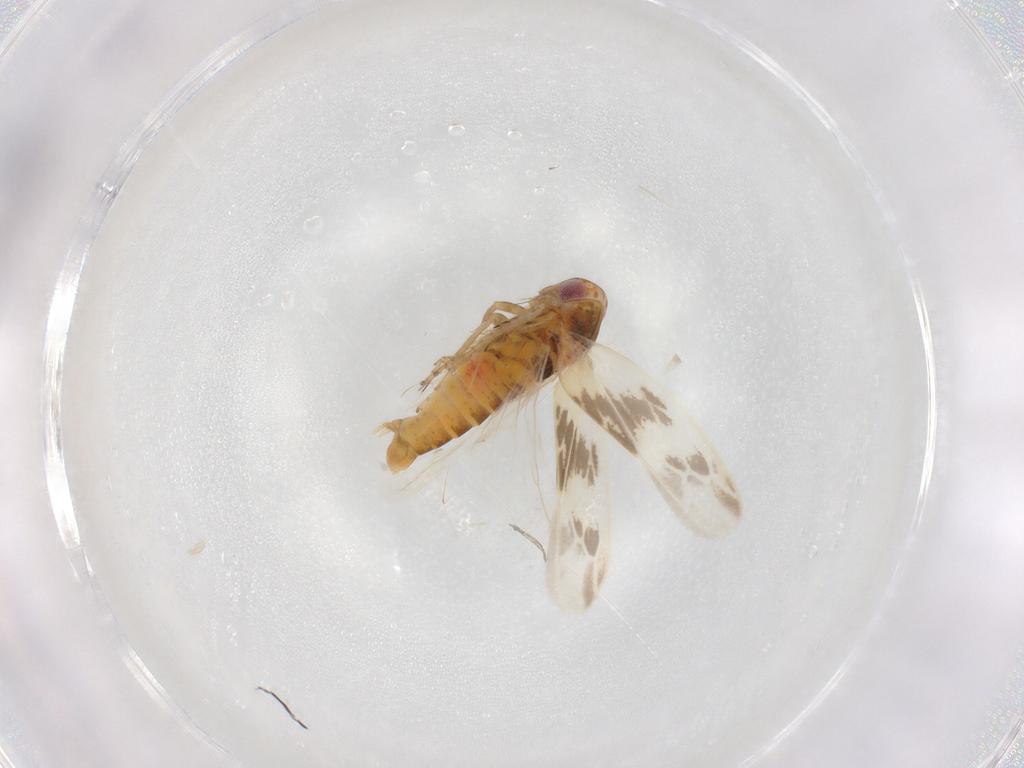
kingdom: Animalia
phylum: Arthropoda
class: Insecta
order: Hemiptera
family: Cicadellidae
